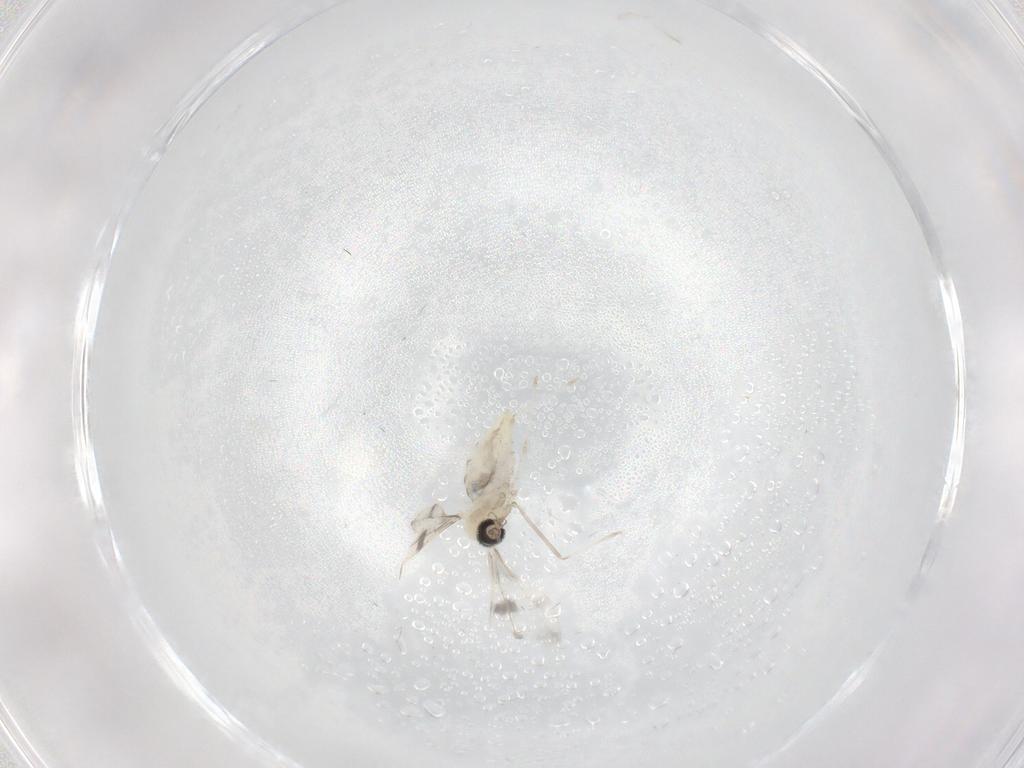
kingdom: Animalia
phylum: Arthropoda
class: Insecta
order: Diptera
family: Cecidomyiidae
